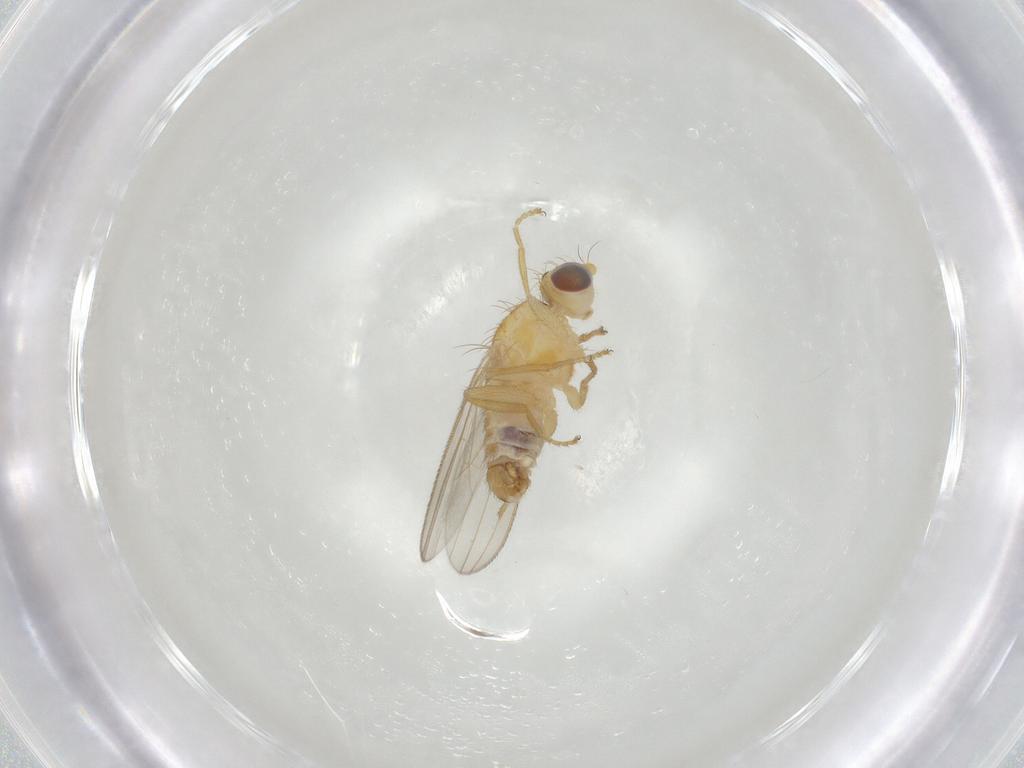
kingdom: Animalia
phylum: Arthropoda
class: Insecta
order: Diptera
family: Chyromyidae
